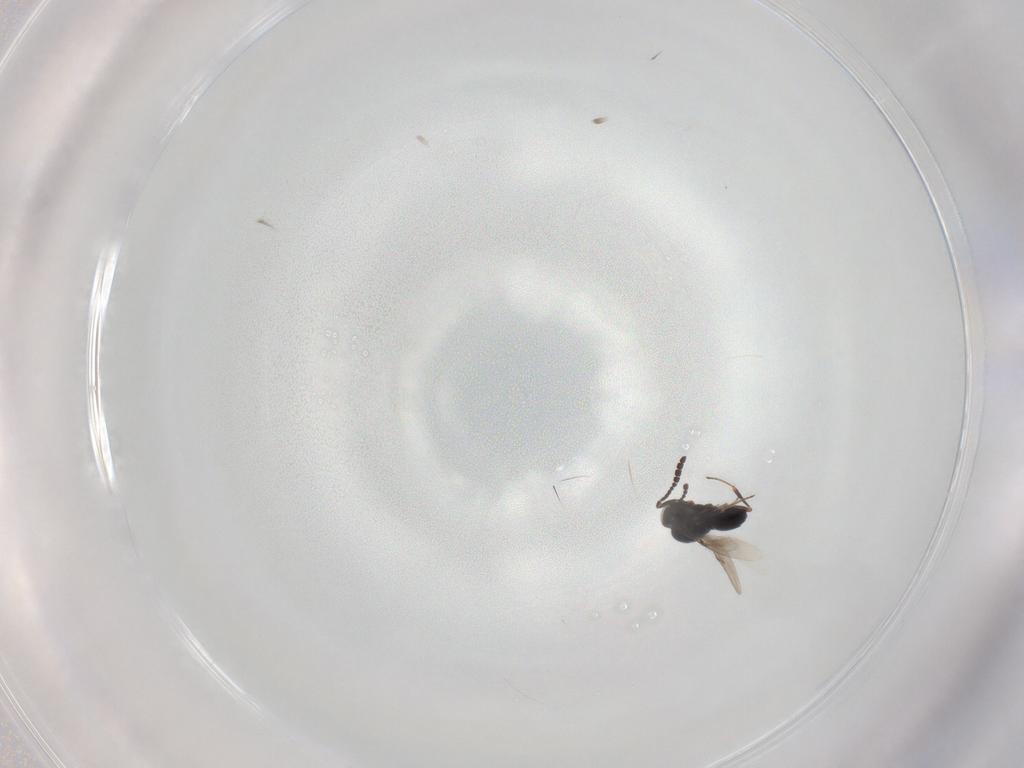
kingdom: Animalia
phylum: Arthropoda
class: Insecta
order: Hymenoptera
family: Scelionidae
